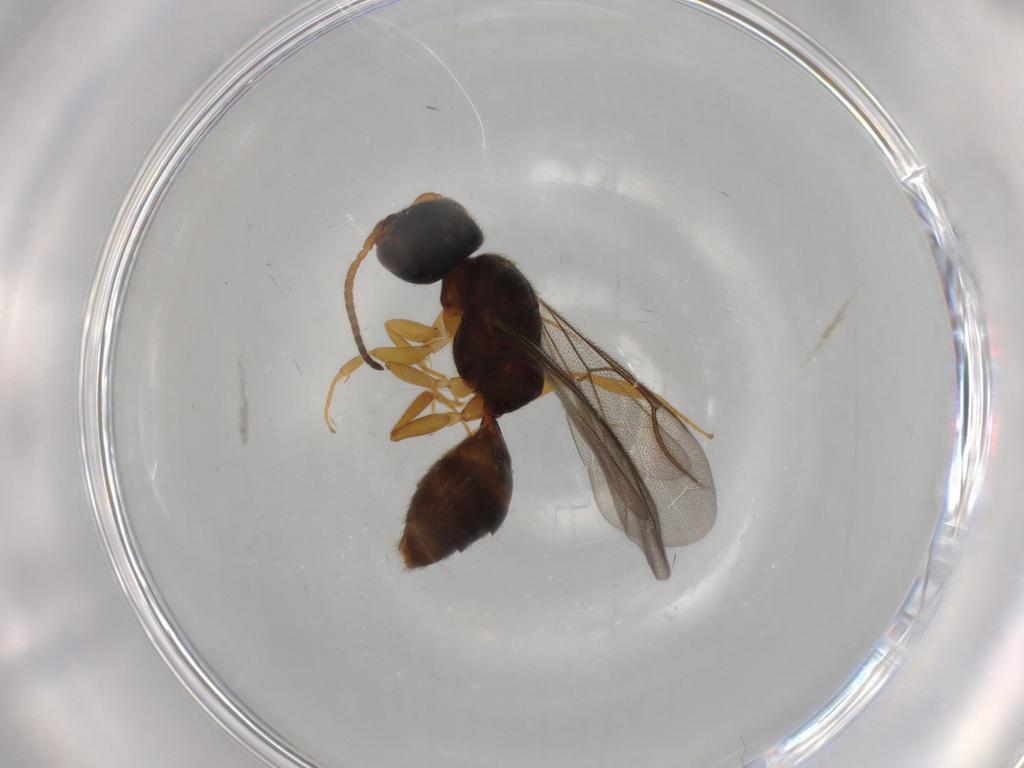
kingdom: Animalia
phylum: Arthropoda
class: Insecta
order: Hymenoptera
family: Bethylidae
